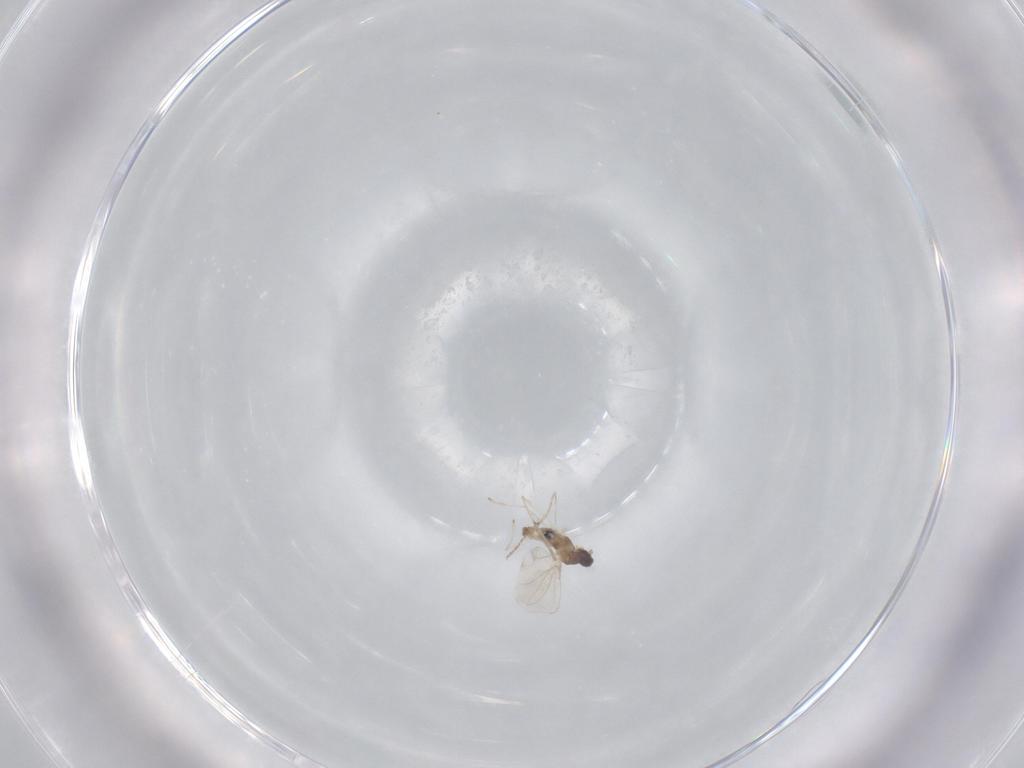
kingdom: Animalia
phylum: Arthropoda
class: Insecta
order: Diptera
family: Cecidomyiidae
